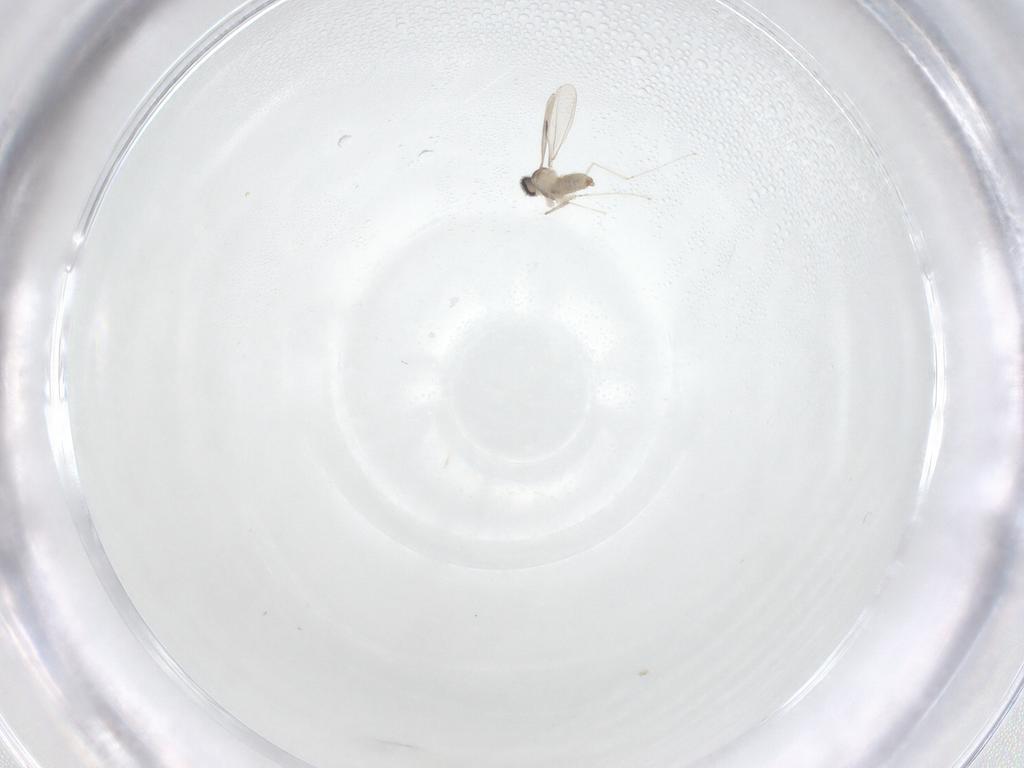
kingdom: Animalia
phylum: Arthropoda
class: Insecta
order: Diptera
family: Cecidomyiidae
